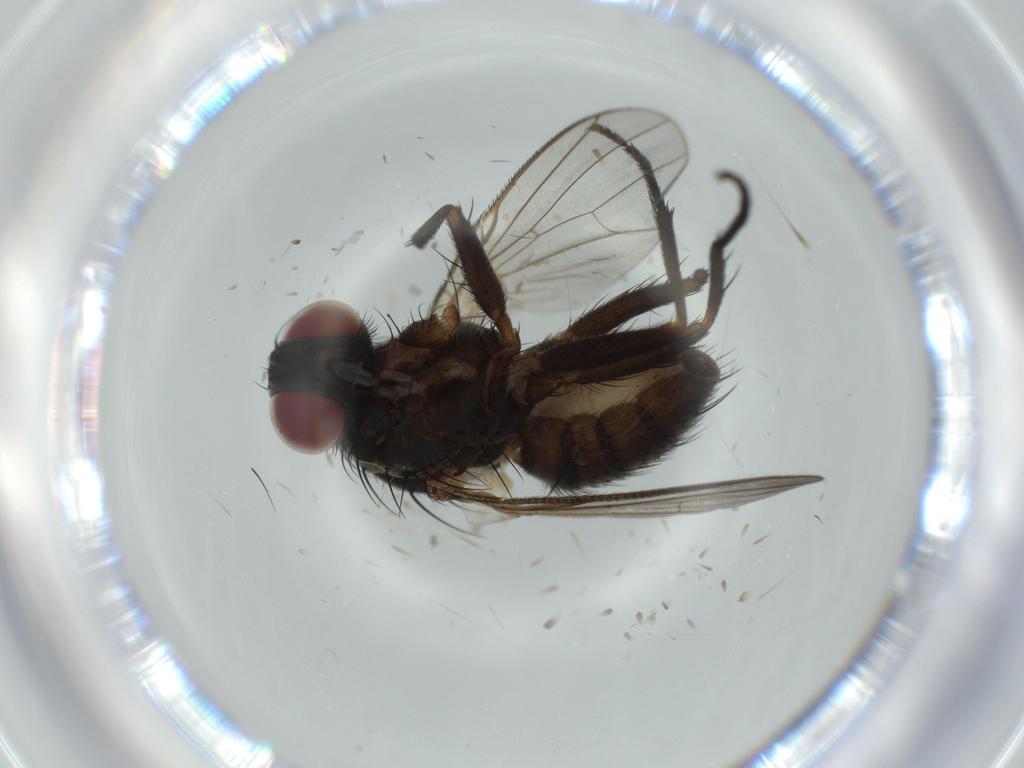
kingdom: Animalia
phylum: Arthropoda
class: Insecta
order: Diptera
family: Muscidae
